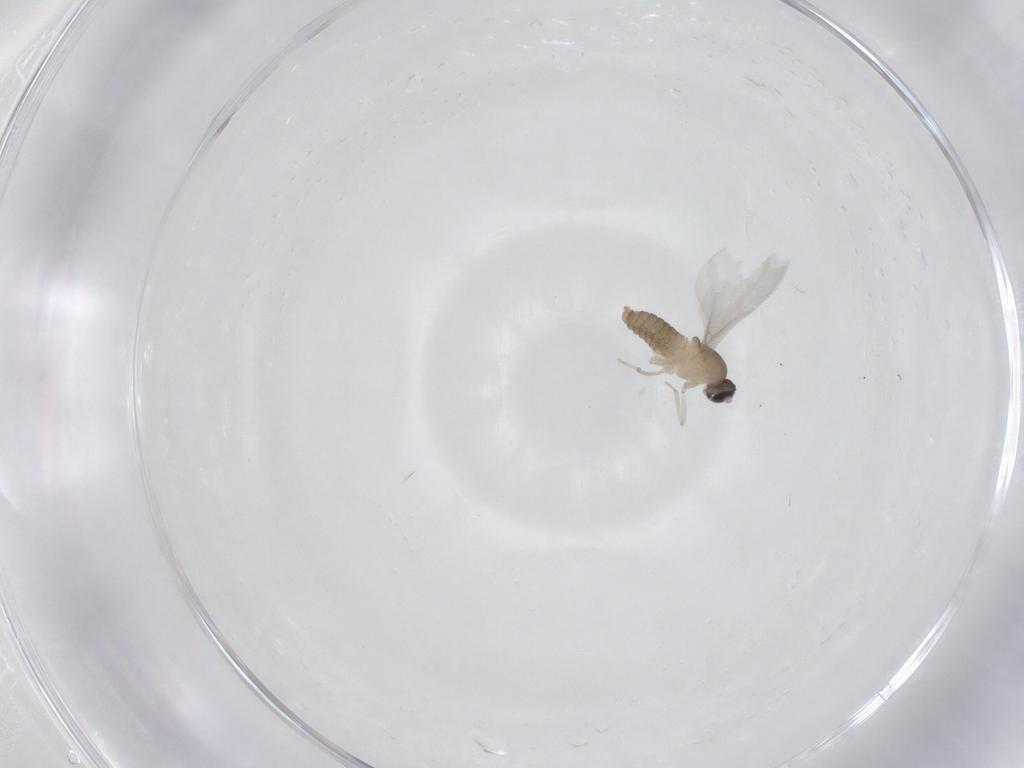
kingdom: Animalia
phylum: Arthropoda
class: Insecta
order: Diptera
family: Cecidomyiidae
